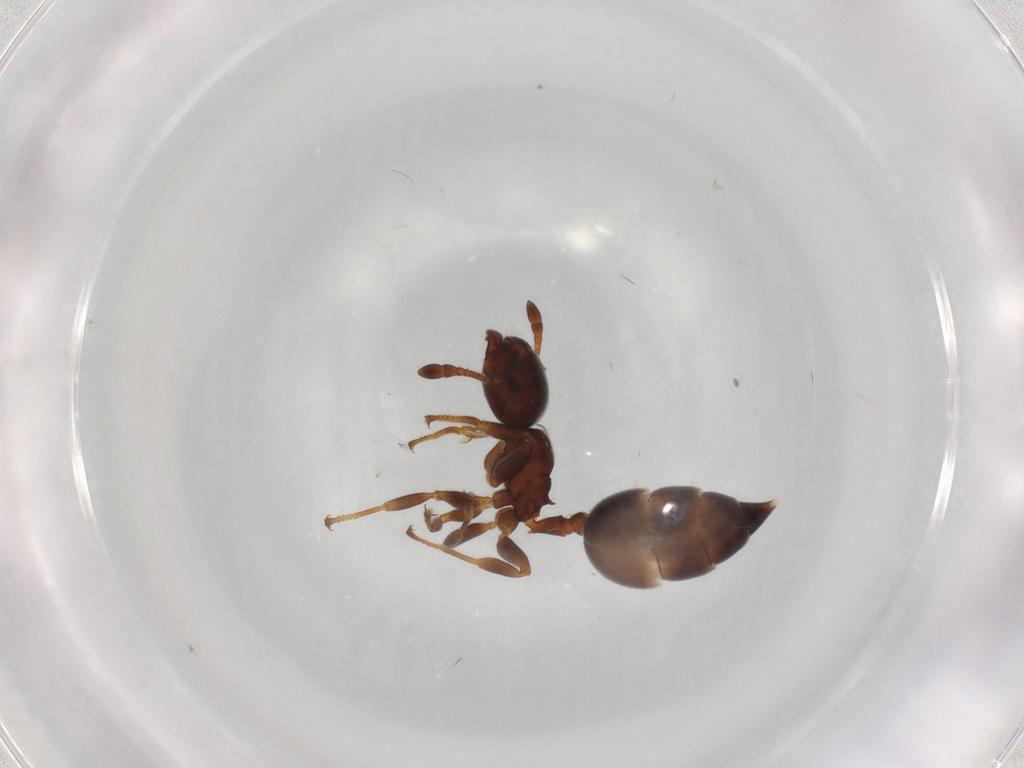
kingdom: Animalia
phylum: Arthropoda
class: Insecta
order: Hymenoptera
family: Formicidae
